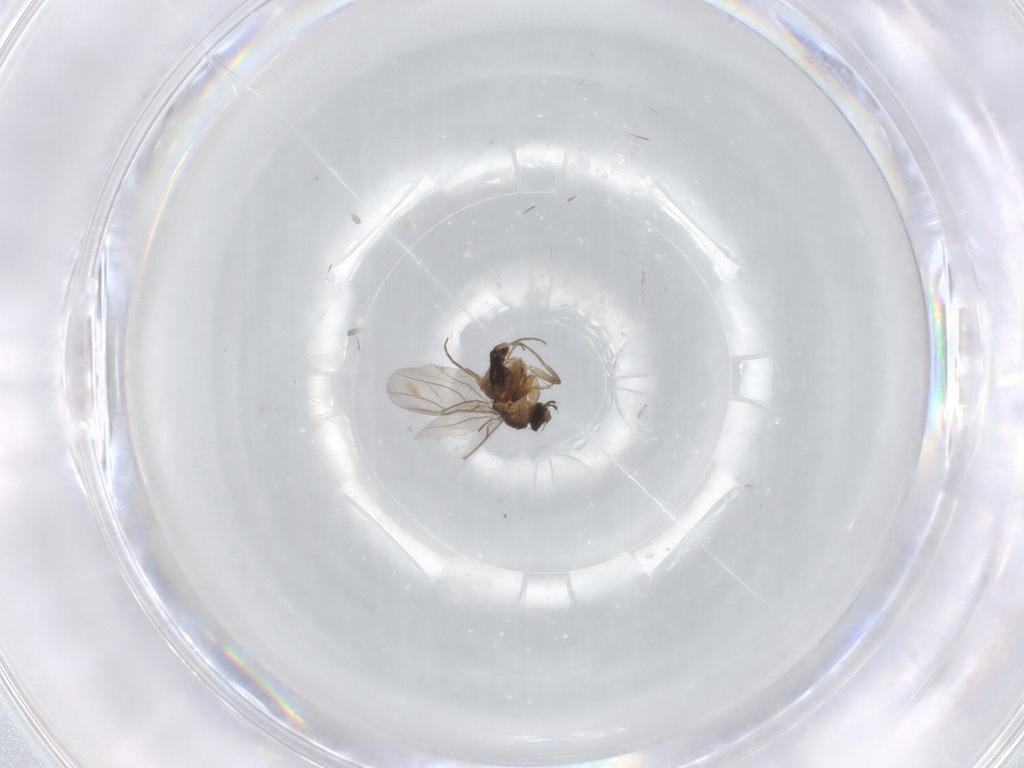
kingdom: Animalia
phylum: Arthropoda
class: Insecta
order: Diptera
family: Phoridae
